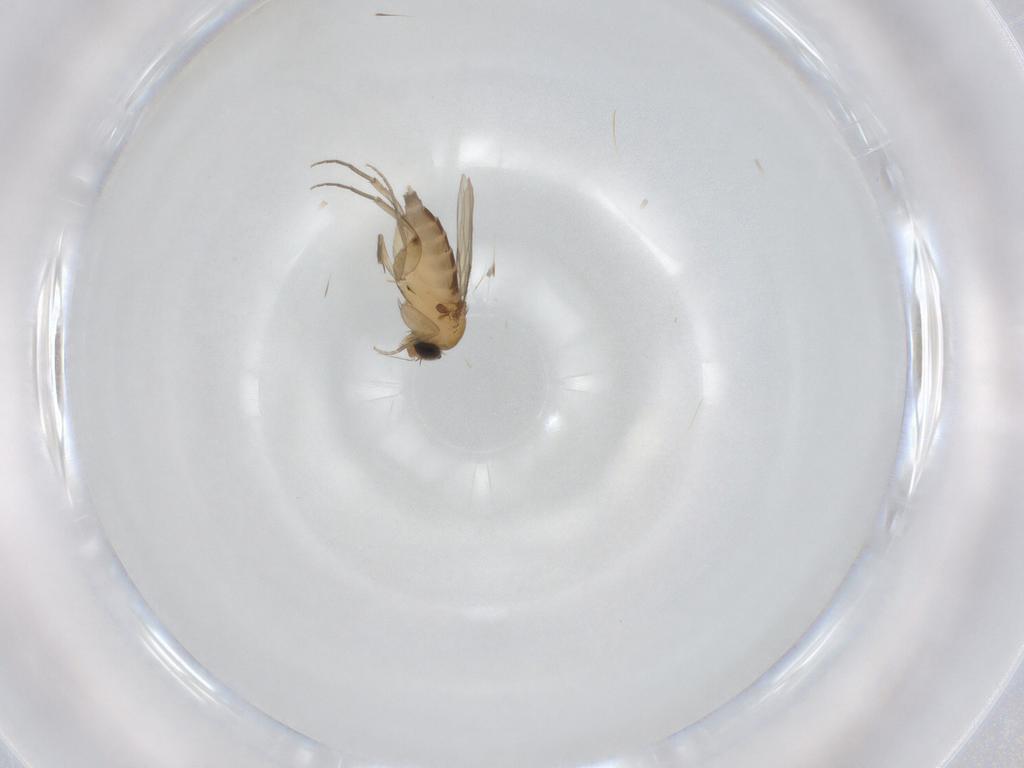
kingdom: Animalia
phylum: Arthropoda
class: Insecta
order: Diptera
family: Phoridae
